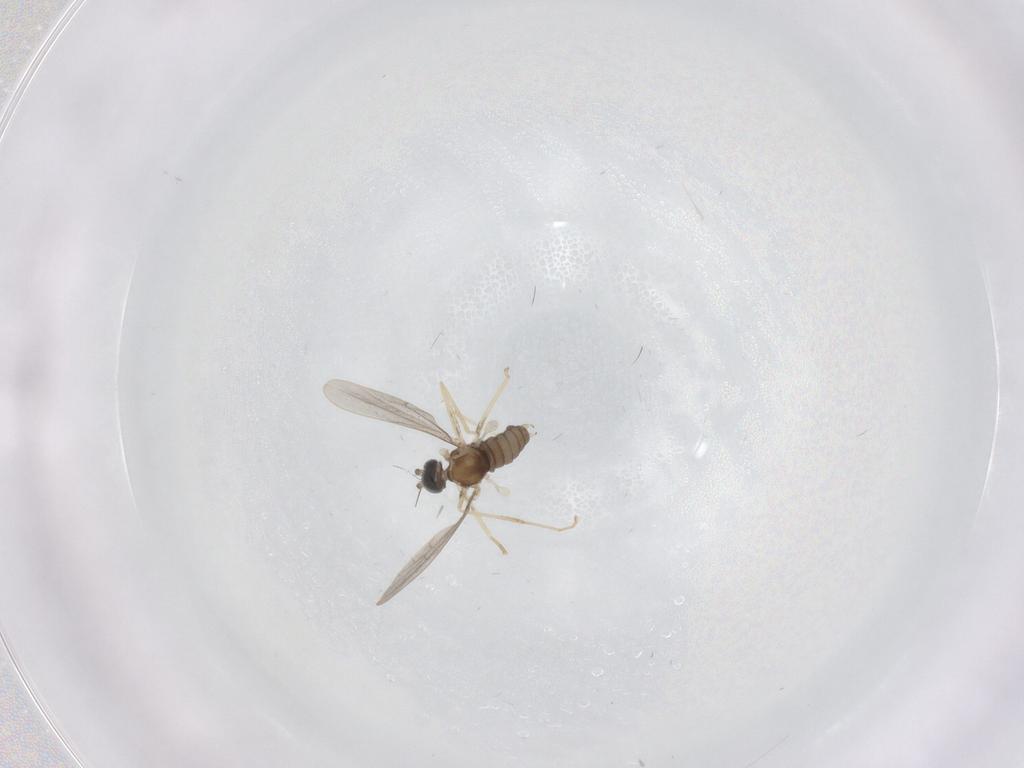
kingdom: Animalia
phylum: Arthropoda
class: Insecta
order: Diptera
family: Cecidomyiidae
